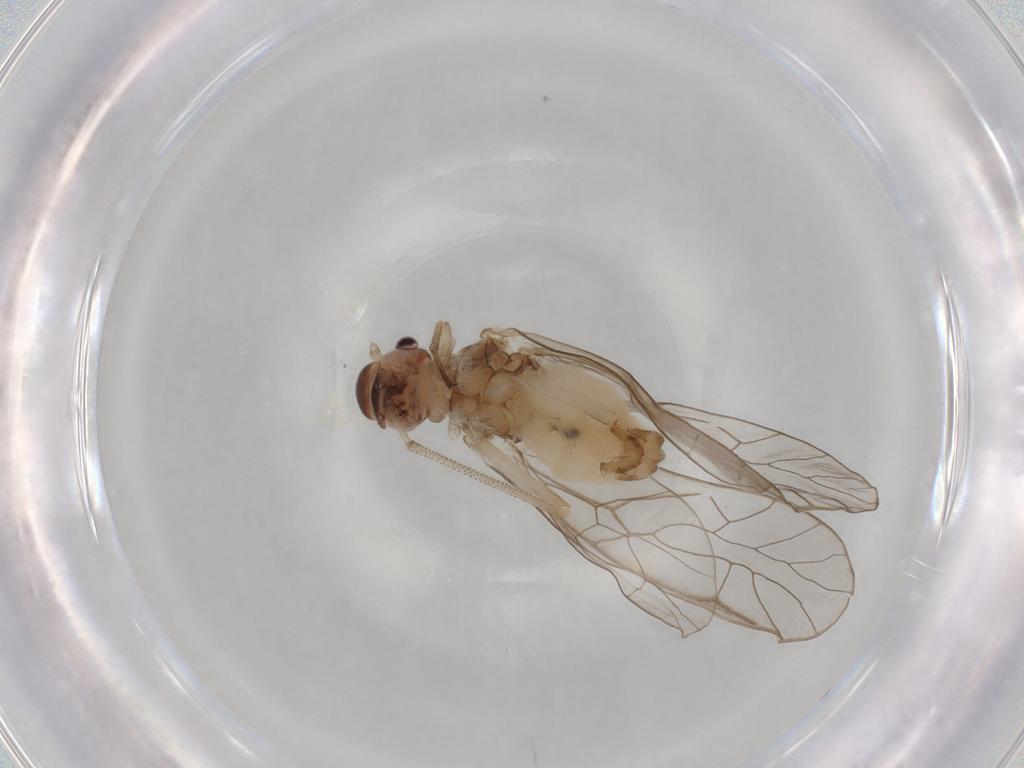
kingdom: Animalia
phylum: Arthropoda
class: Insecta
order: Psocodea
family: Stenopsocidae
